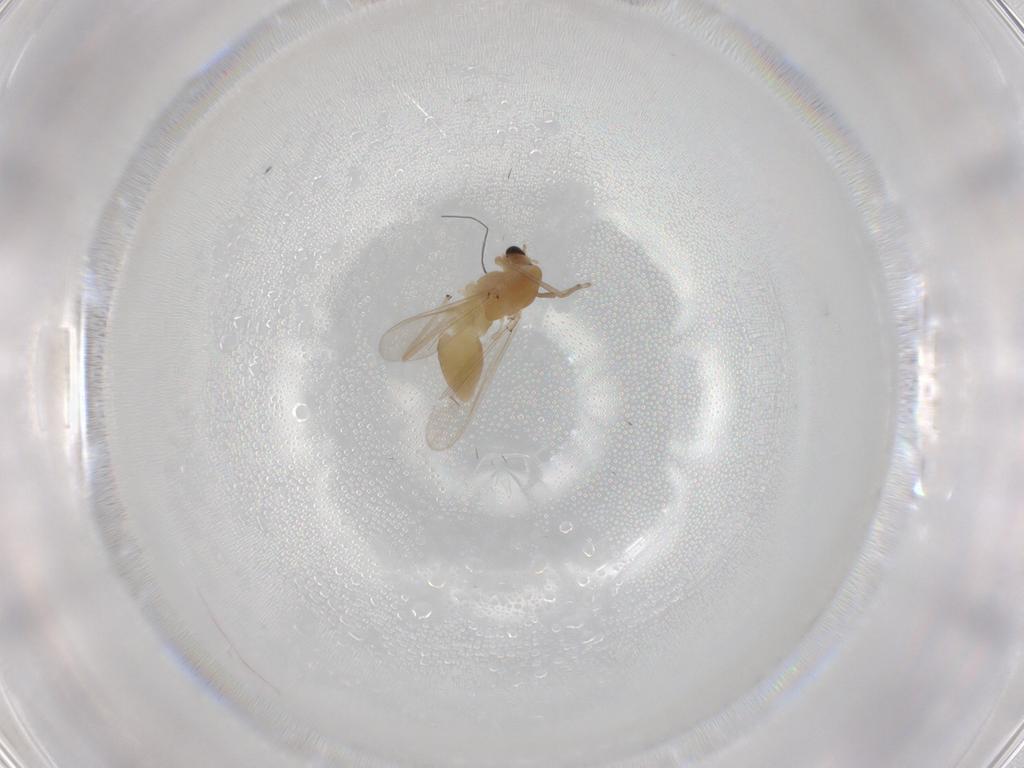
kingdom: Animalia
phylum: Arthropoda
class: Insecta
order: Diptera
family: Chironomidae
